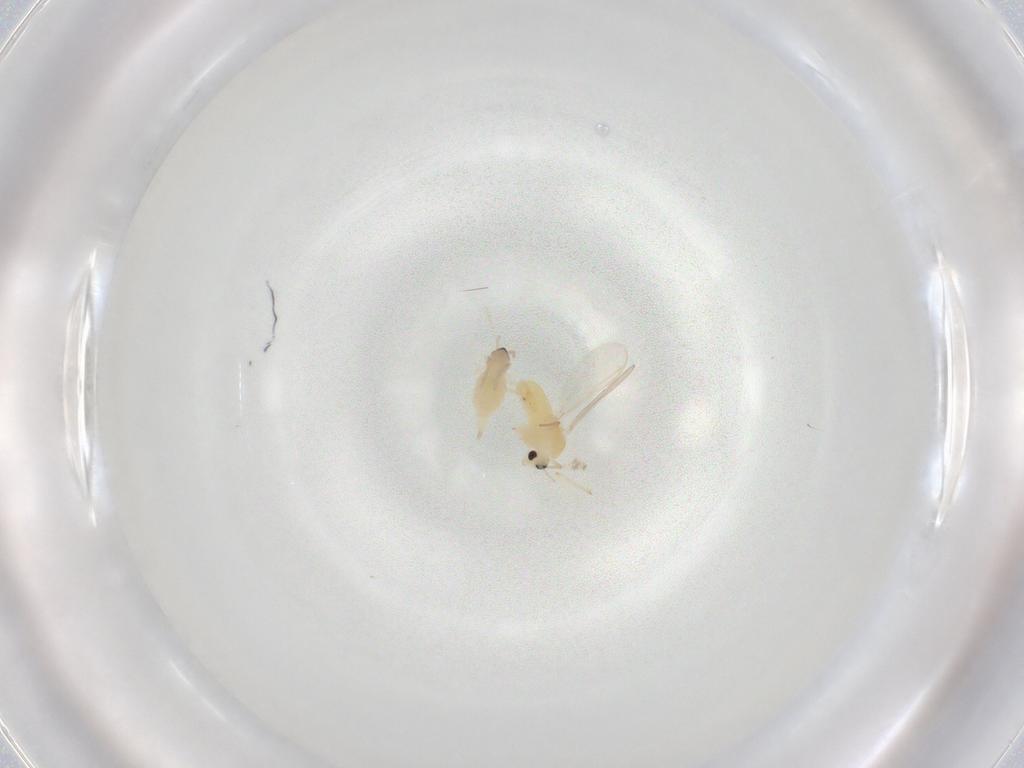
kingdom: Animalia
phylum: Arthropoda
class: Insecta
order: Diptera
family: Chironomidae
